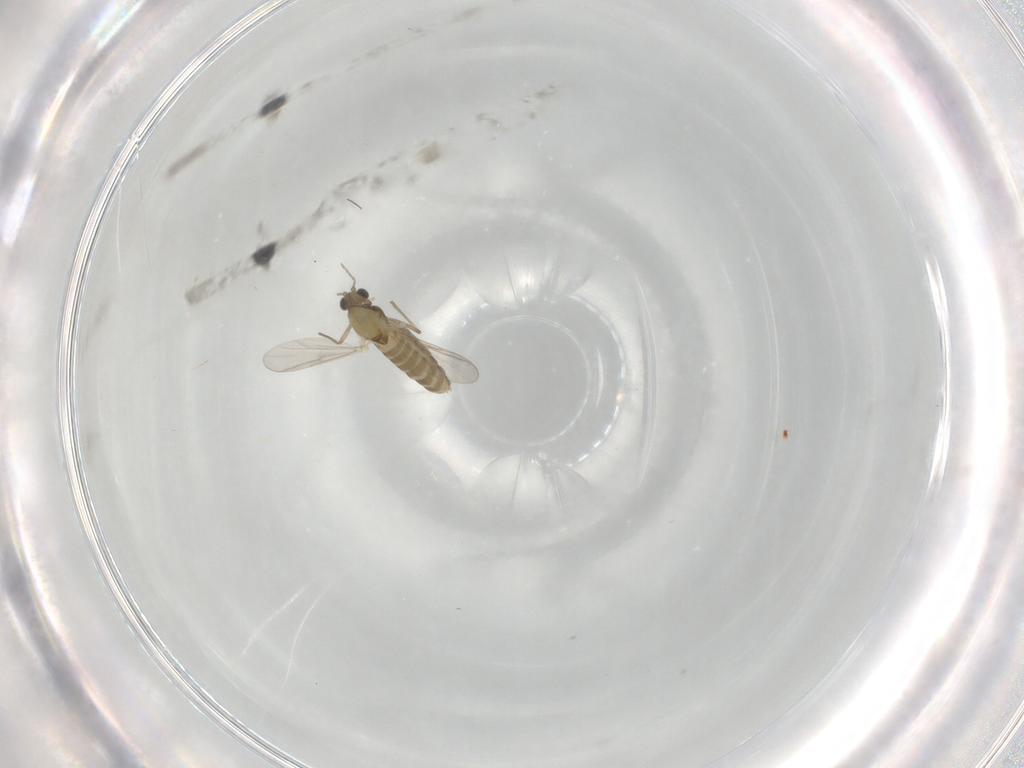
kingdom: Animalia
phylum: Arthropoda
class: Insecta
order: Diptera
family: Chironomidae
